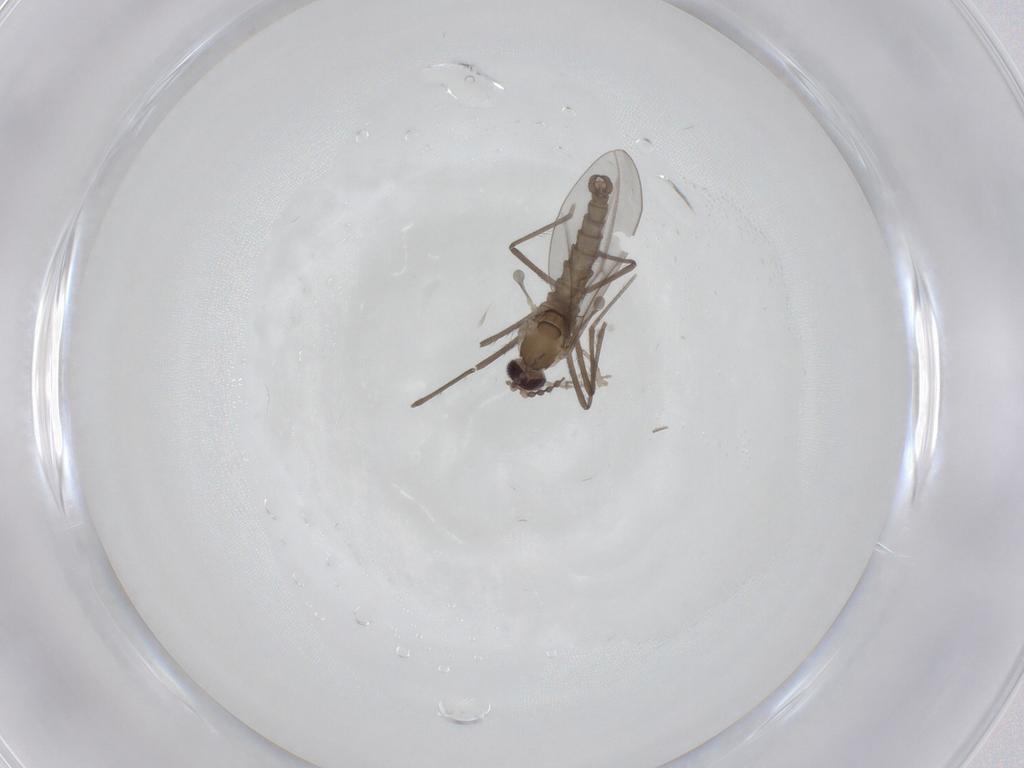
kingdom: Animalia
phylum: Arthropoda
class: Insecta
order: Diptera
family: Cecidomyiidae
